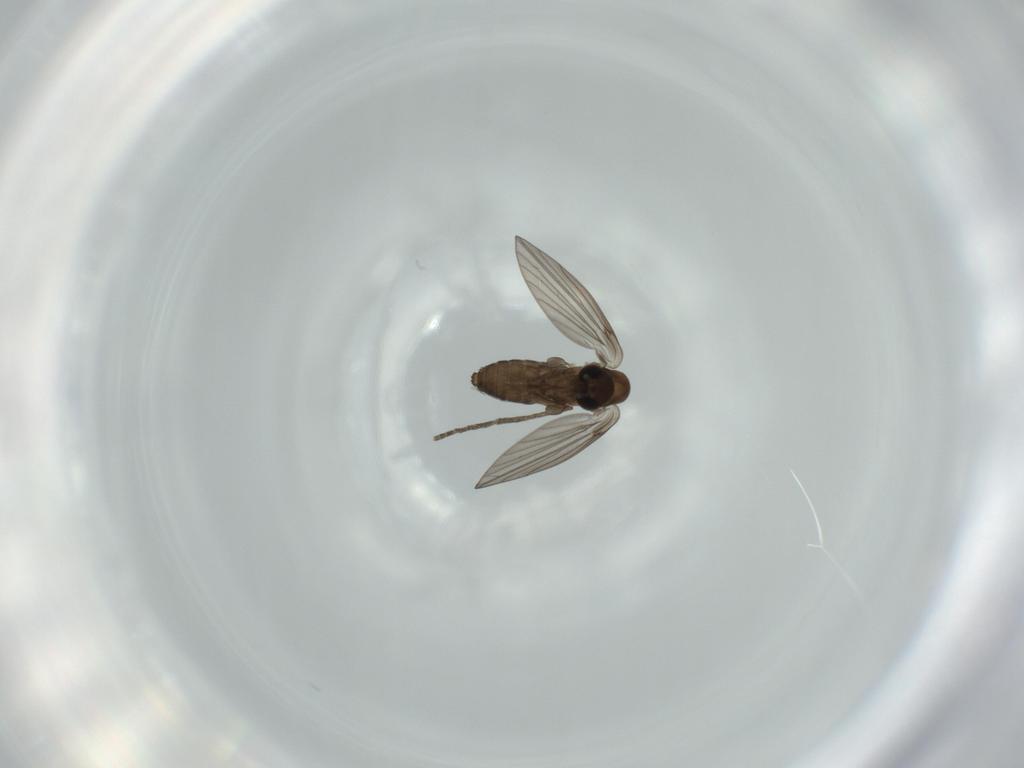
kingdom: Animalia
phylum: Arthropoda
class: Insecta
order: Diptera
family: Psychodidae
